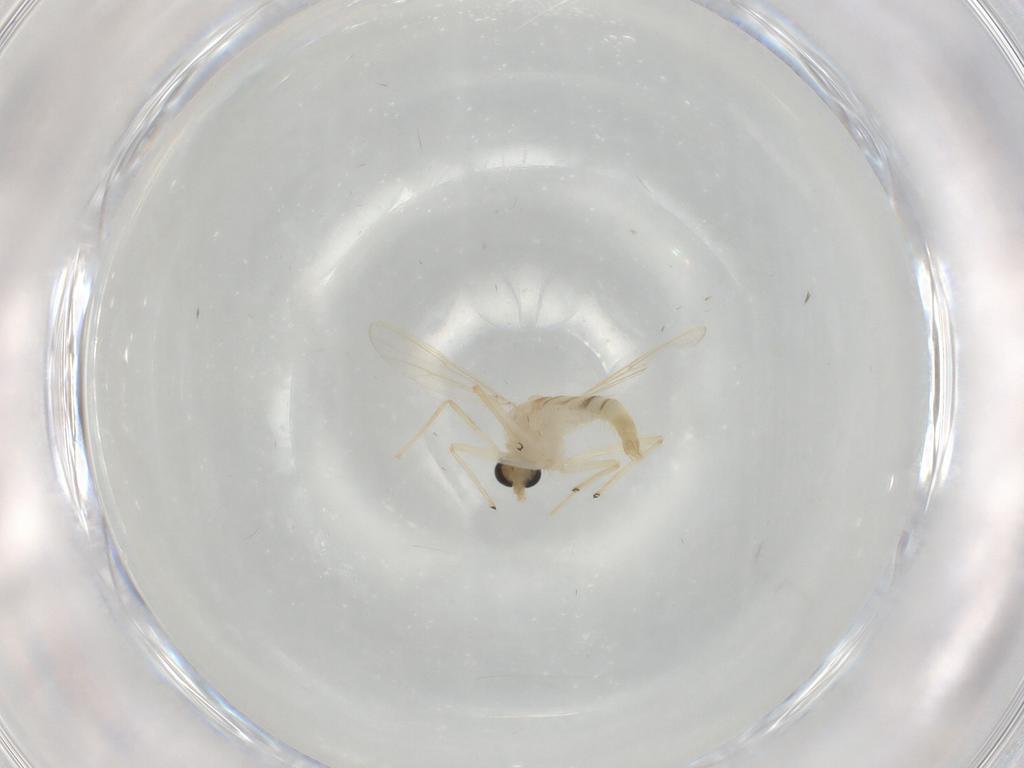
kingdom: Animalia
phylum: Arthropoda
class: Insecta
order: Diptera
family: Chironomidae
